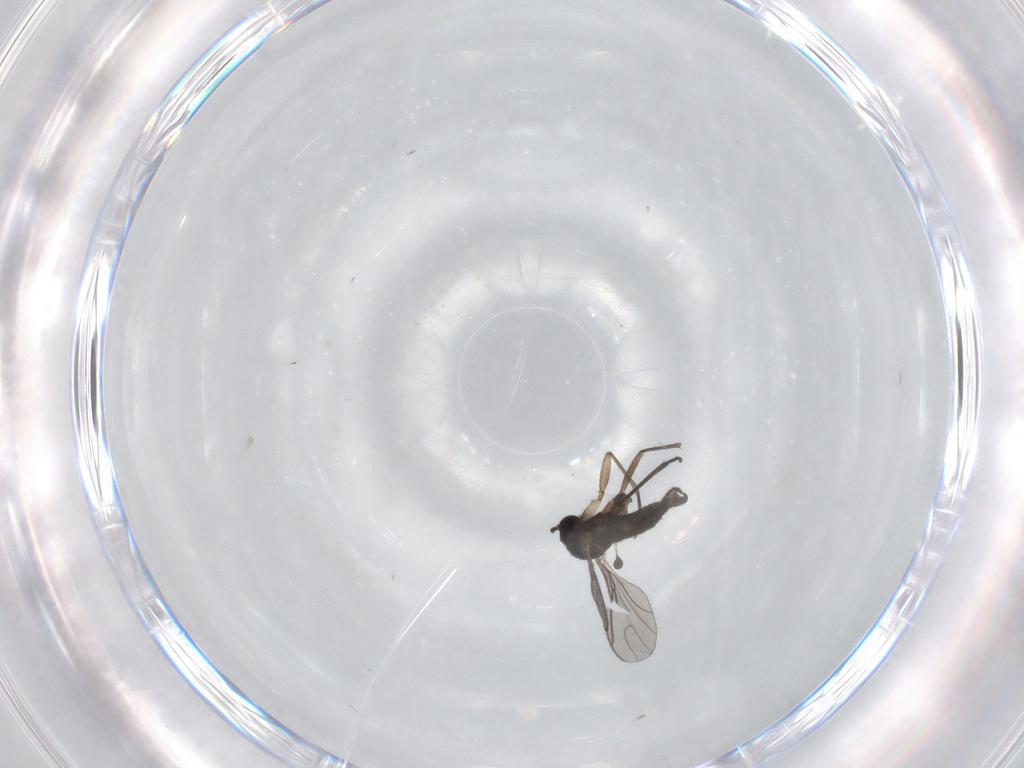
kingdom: Animalia
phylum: Arthropoda
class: Insecta
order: Diptera
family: Sciaridae
